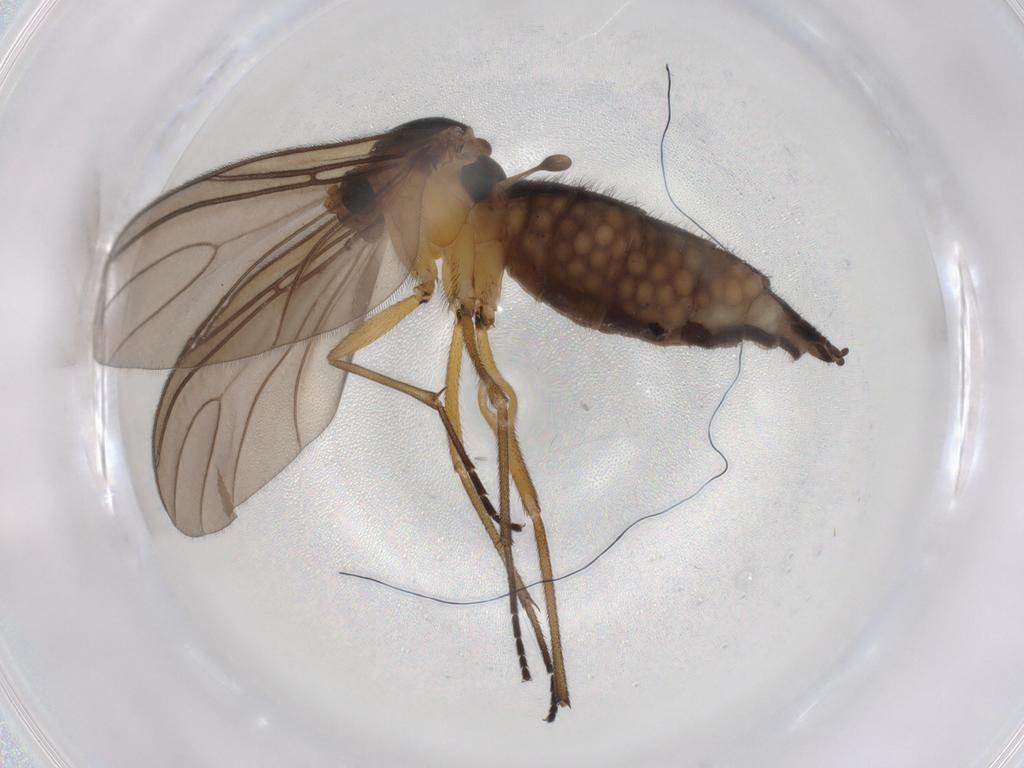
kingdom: Animalia
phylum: Arthropoda
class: Insecta
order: Diptera
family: Sciaridae
